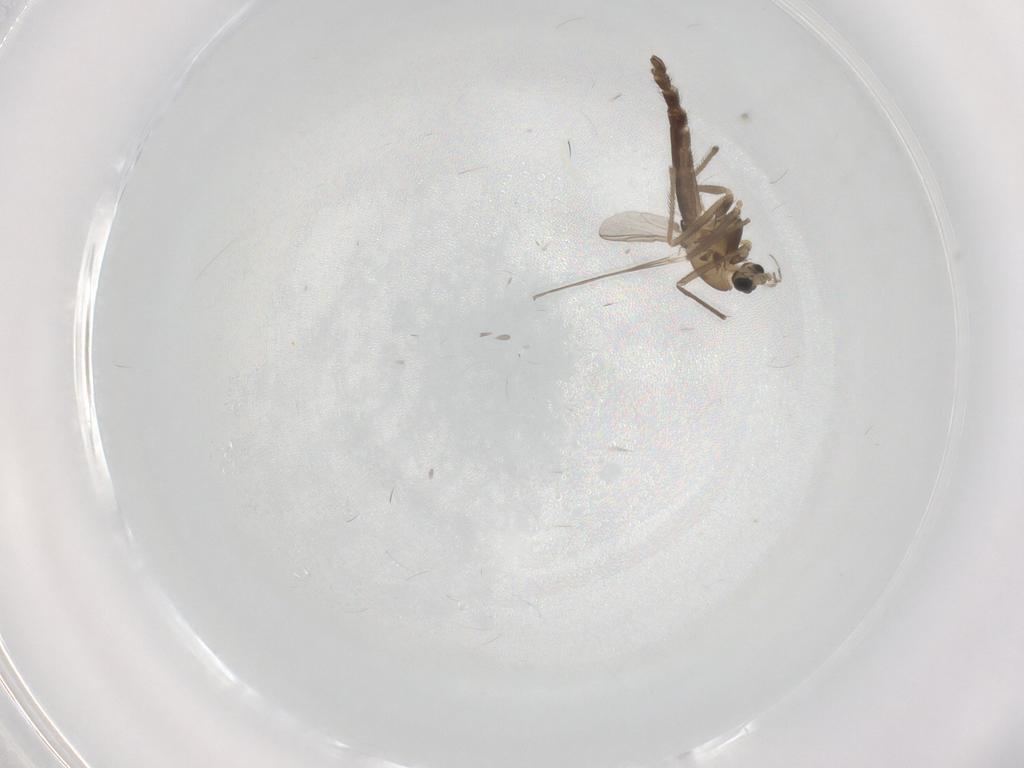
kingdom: Animalia
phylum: Arthropoda
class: Insecta
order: Diptera
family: Chironomidae
